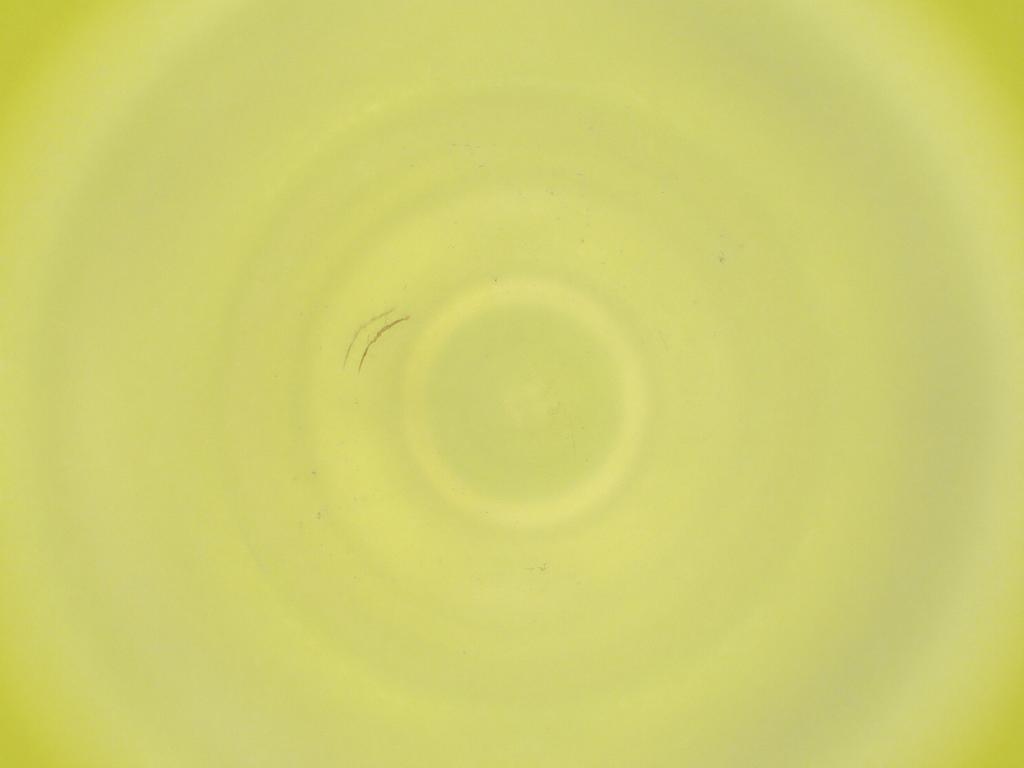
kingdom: Animalia
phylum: Arthropoda
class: Insecta
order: Diptera
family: Cecidomyiidae
